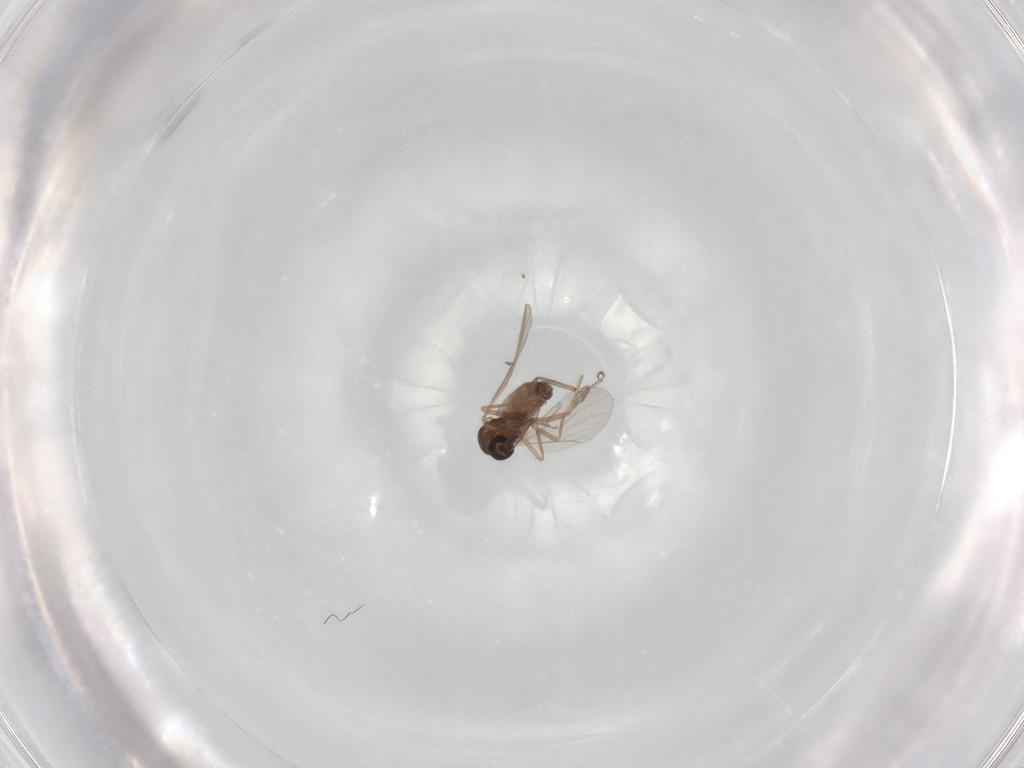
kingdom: Animalia
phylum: Arthropoda
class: Insecta
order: Diptera
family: Ceratopogonidae
